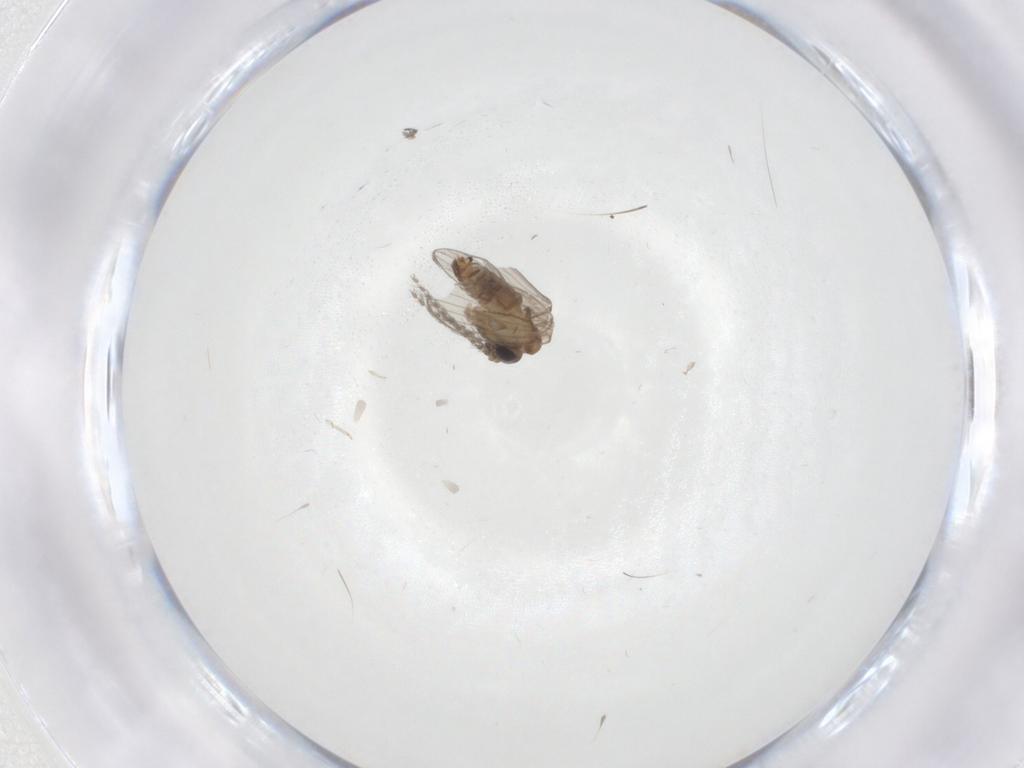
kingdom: Animalia
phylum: Arthropoda
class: Insecta
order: Diptera
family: Psychodidae
